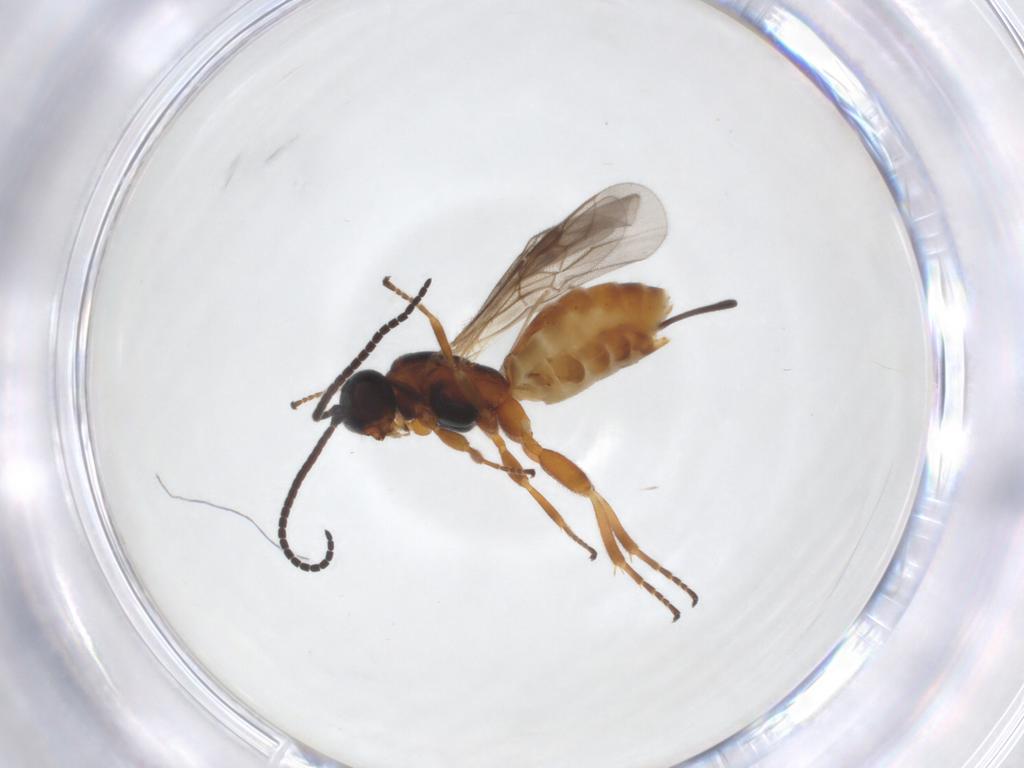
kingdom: Animalia
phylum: Arthropoda
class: Insecta
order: Hymenoptera
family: Braconidae
